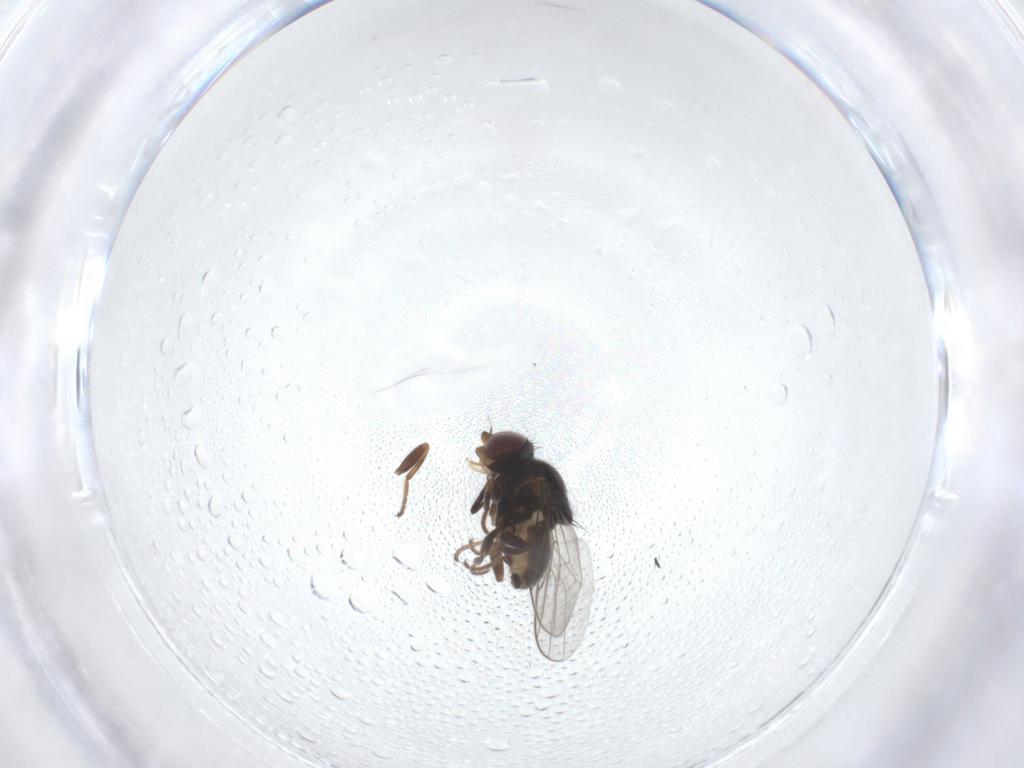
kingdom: Animalia
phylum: Arthropoda
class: Insecta
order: Diptera
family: Chloropidae
